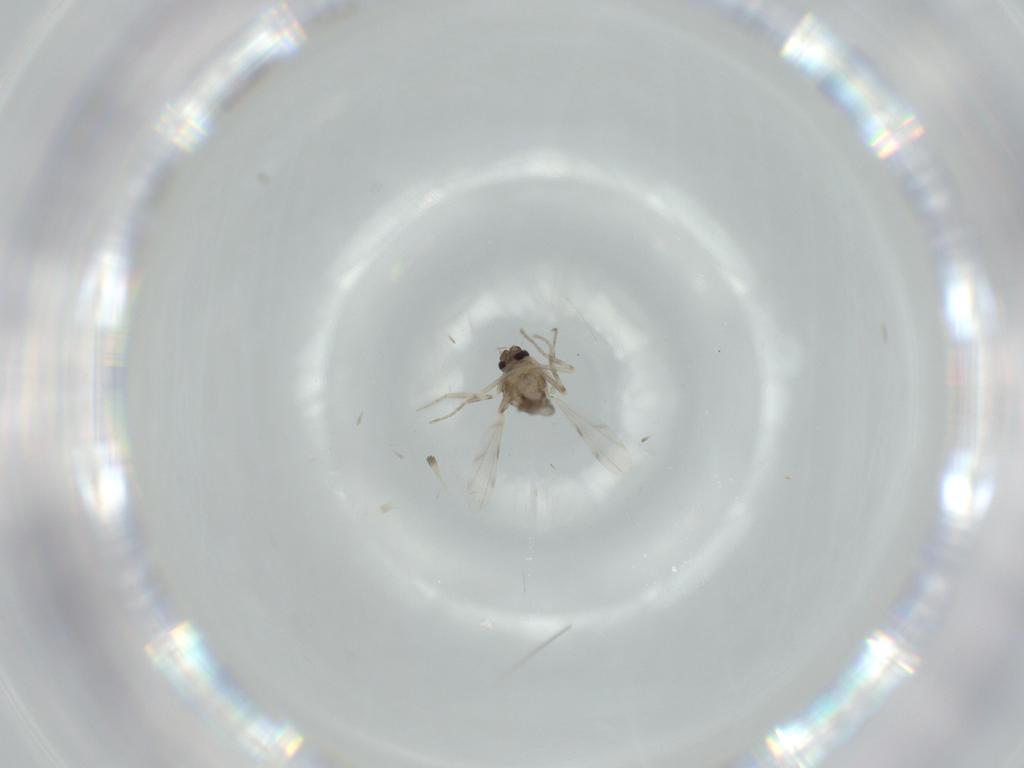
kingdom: Animalia
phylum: Arthropoda
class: Insecta
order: Diptera
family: Ceratopogonidae
